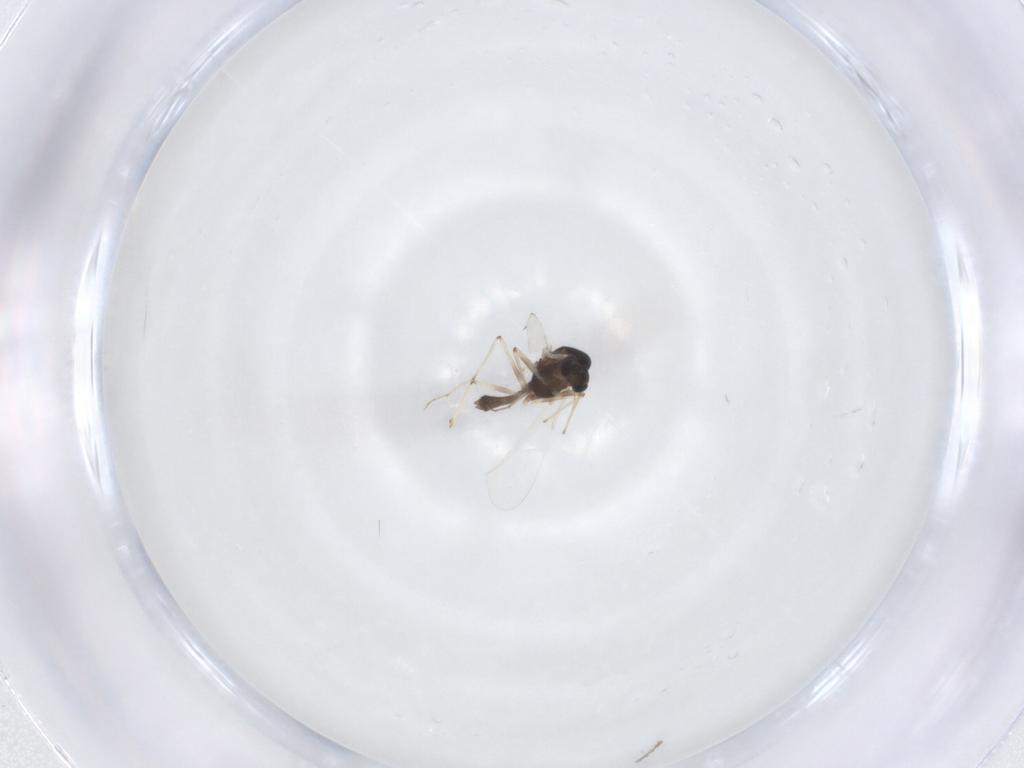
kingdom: Animalia
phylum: Arthropoda
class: Insecta
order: Diptera
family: Chironomidae
